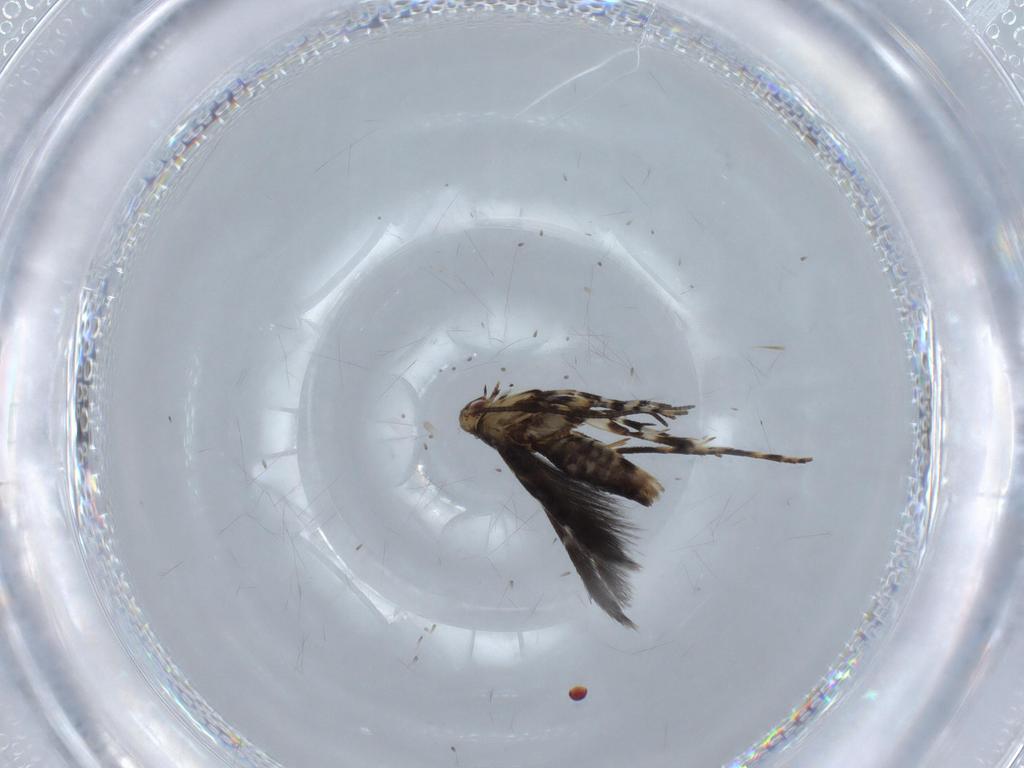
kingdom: Animalia
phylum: Arthropoda
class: Insecta
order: Lepidoptera
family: Gracillariidae
